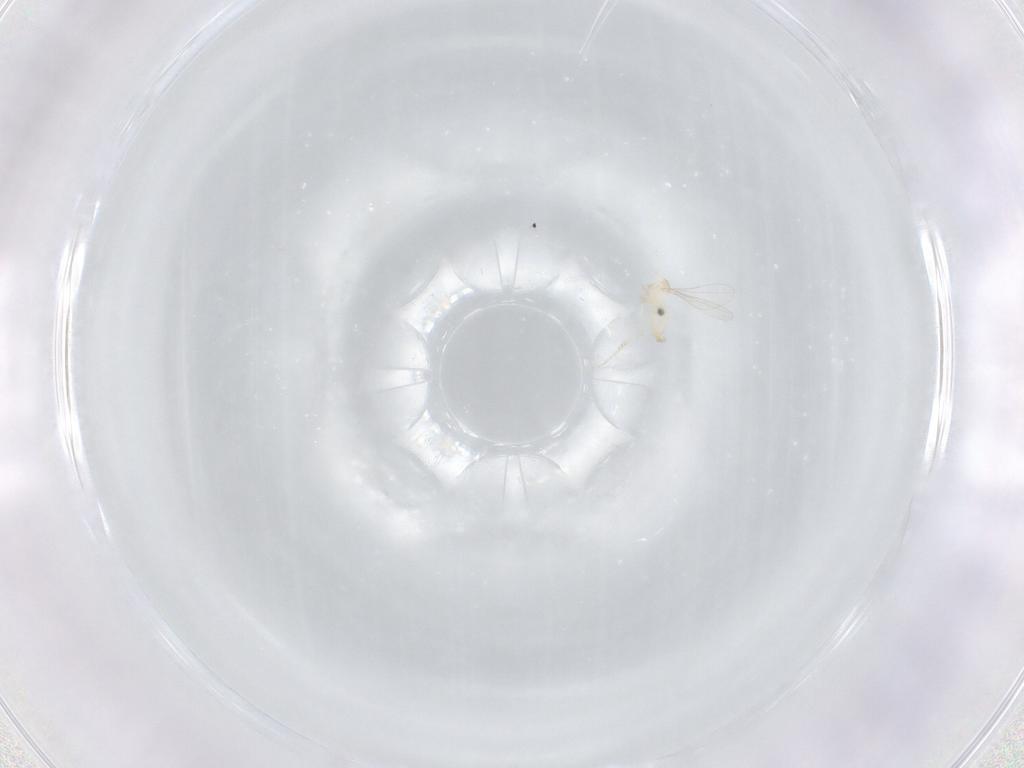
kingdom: Animalia
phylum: Arthropoda
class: Insecta
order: Diptera
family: Cecidomyiidae
